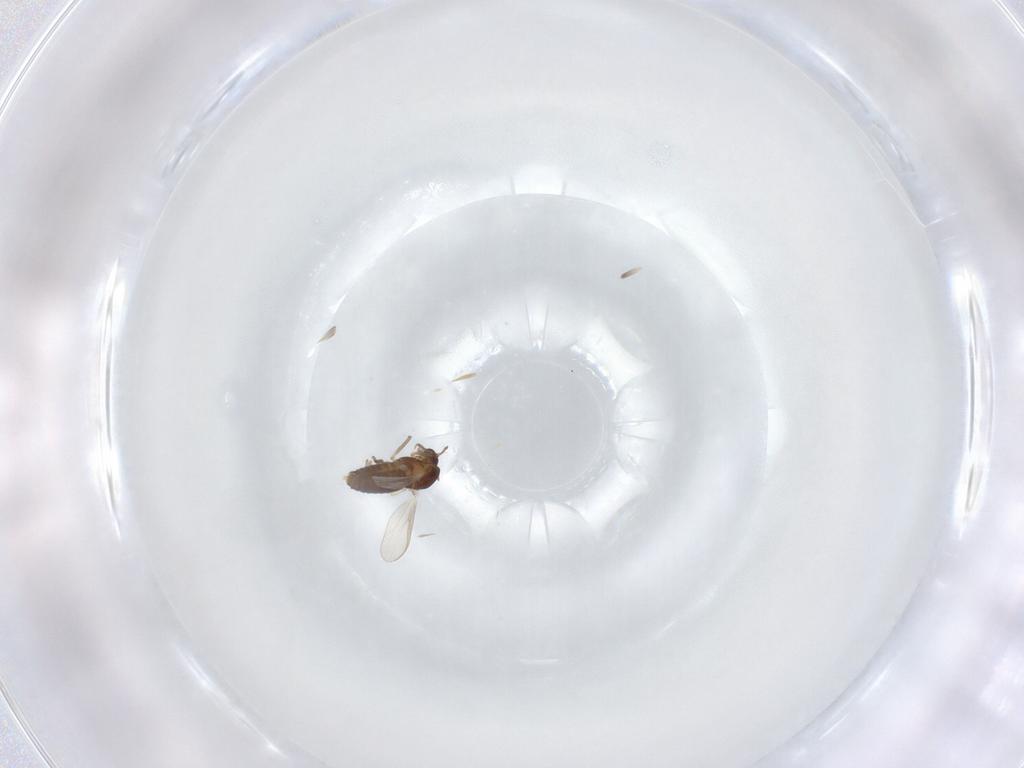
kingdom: Animalia
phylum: Arthropoda
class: Insecta
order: Diptera
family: Chironomidae
